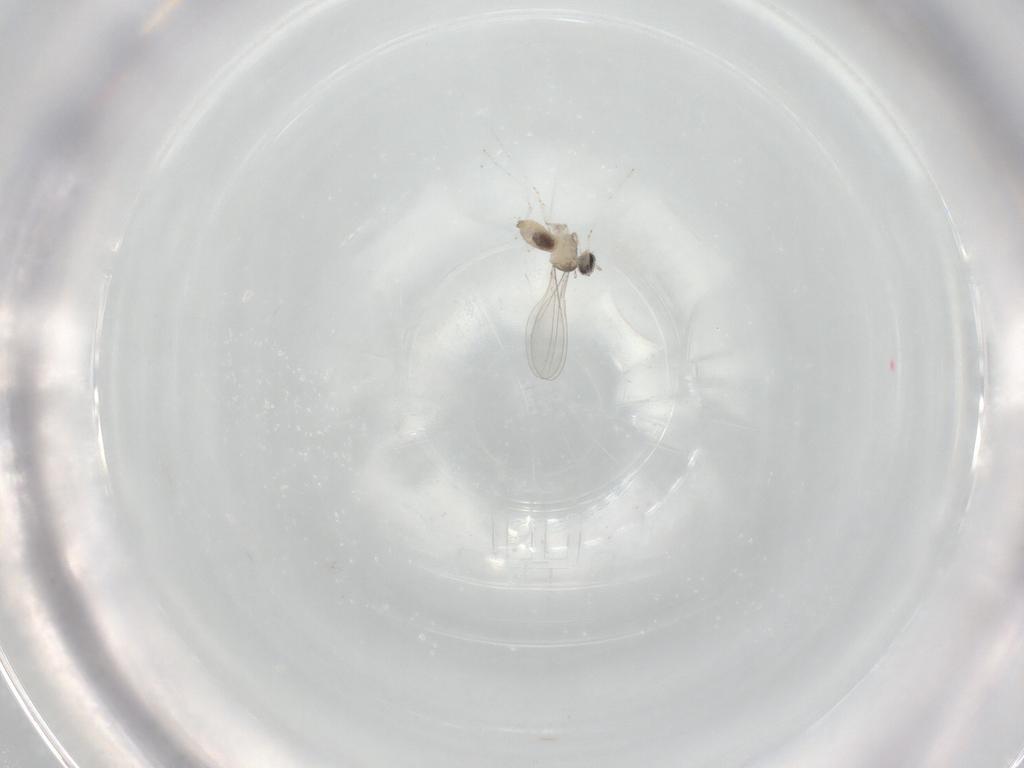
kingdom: Animalia
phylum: Arthropoda
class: Insecta
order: Diptera
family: Cecidomyiidae
